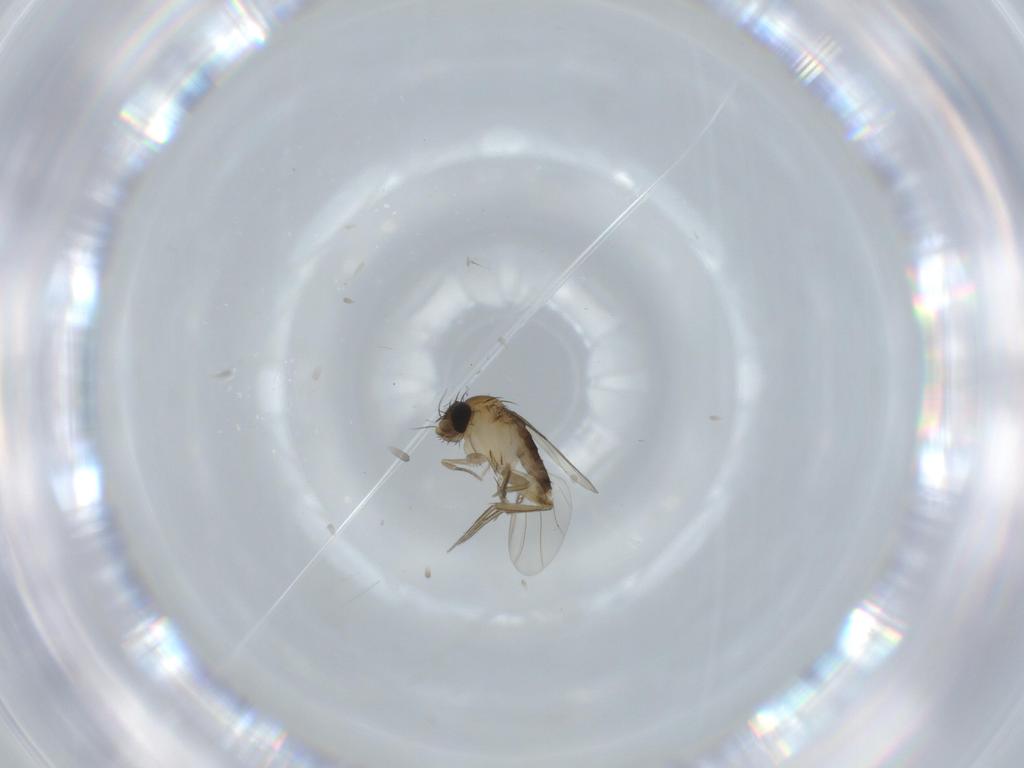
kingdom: Animalia
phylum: Arthropoda
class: Insecta
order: Diptera
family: Phoridae
